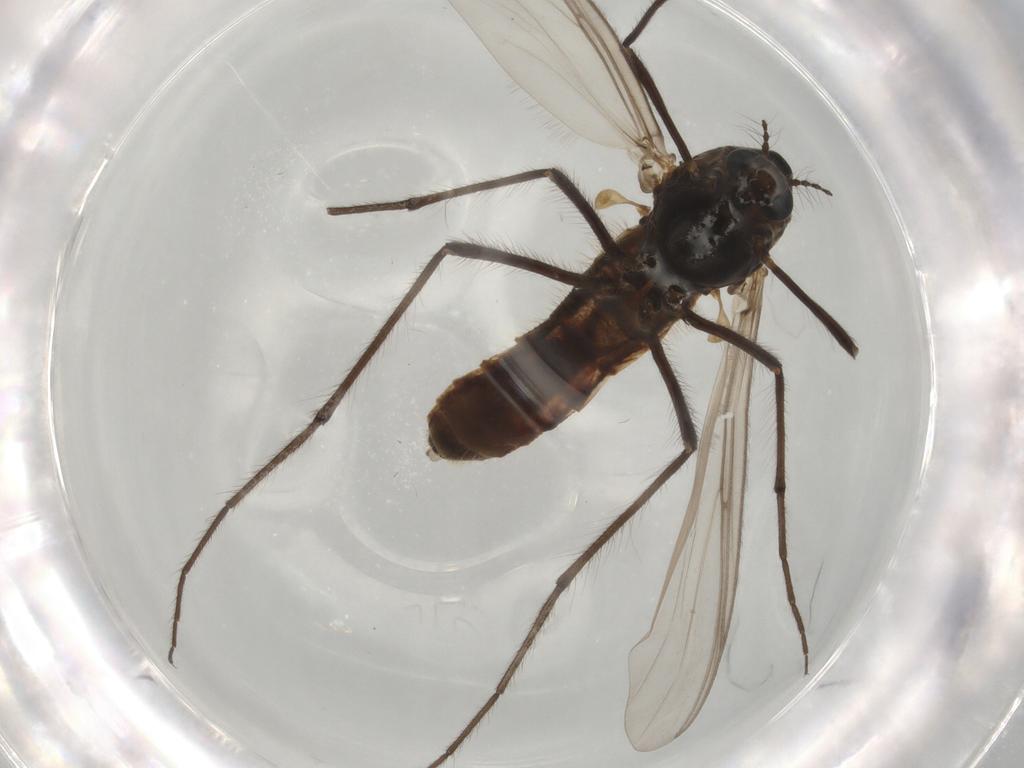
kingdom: Animalia
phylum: Arthropoda
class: Insecta
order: Diptera
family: Chironomidae
